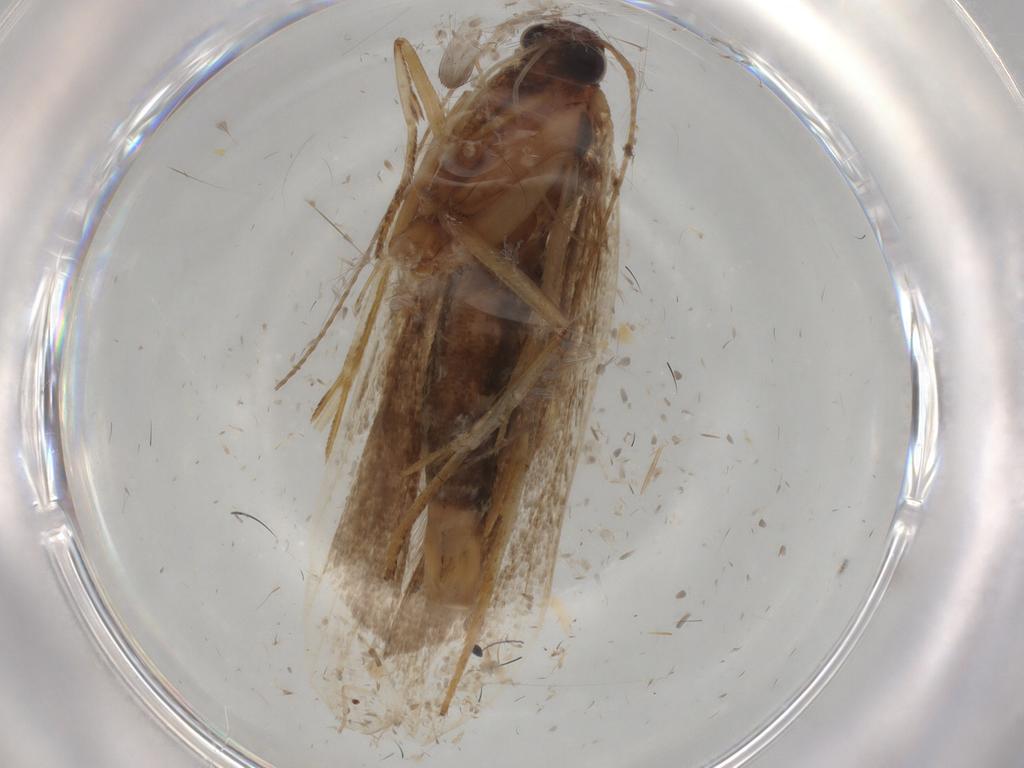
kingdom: Animalia
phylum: Arthropoda
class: Insecta
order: Lepidoptera
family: Gelechiidae
